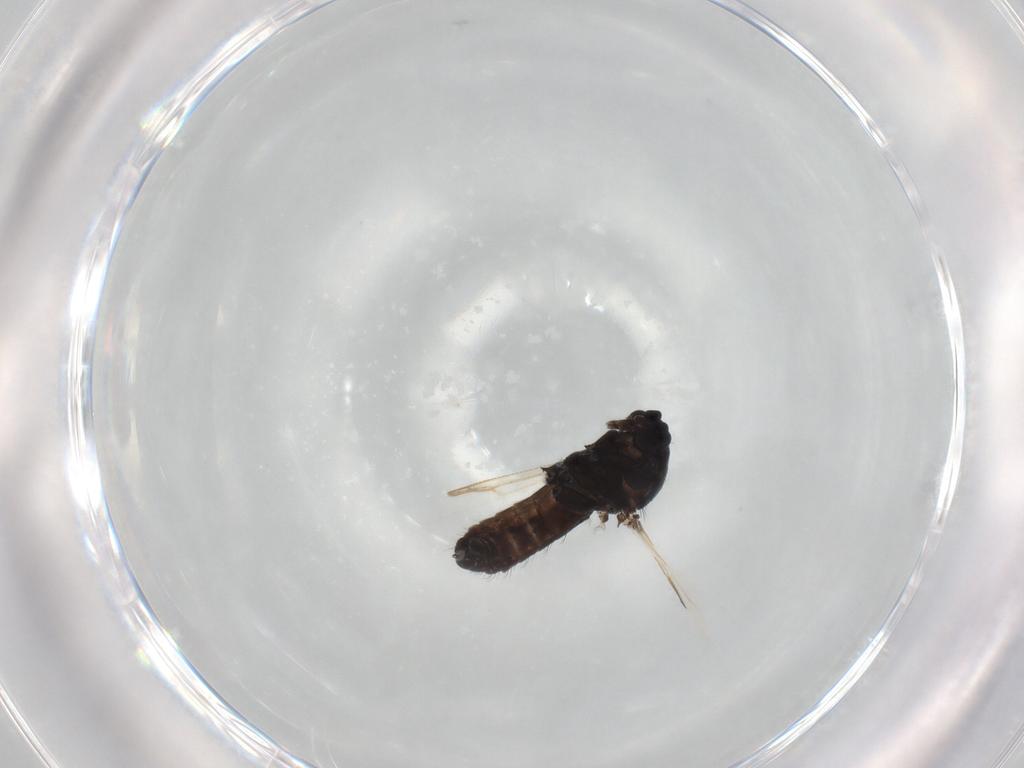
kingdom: Animalia
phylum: Arthropoda
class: Insecta
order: Diptera
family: Ceratopogonidae
